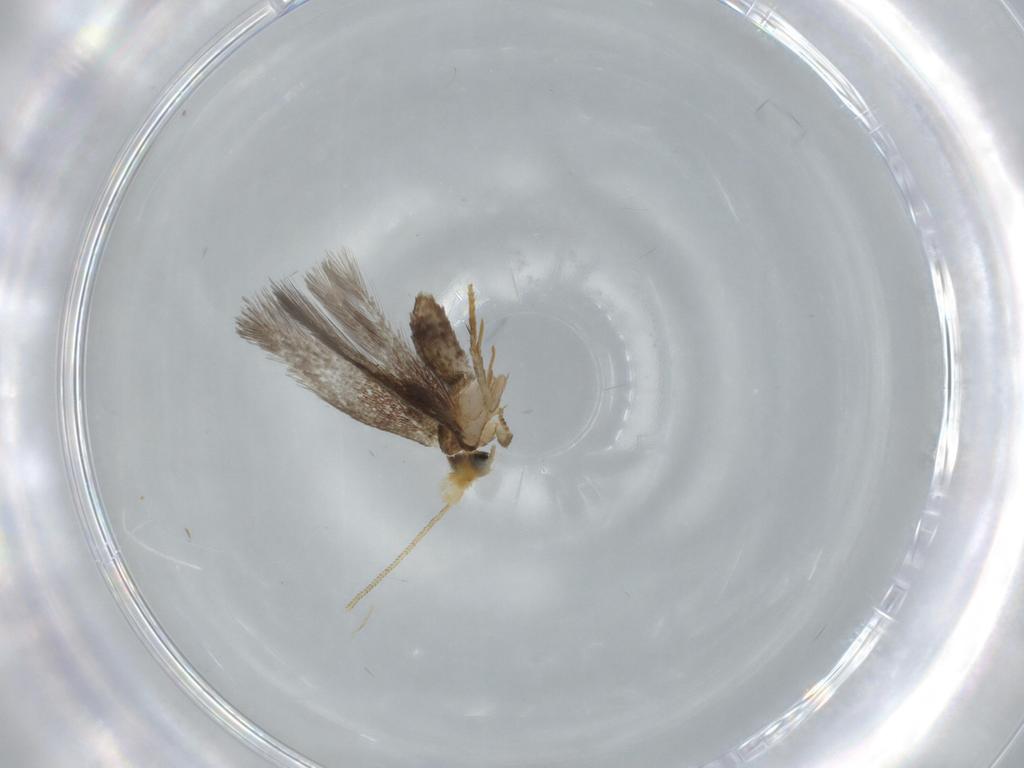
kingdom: Animalia
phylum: Arthropoda
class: Insecta
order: Lepidoptera
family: Nepticulidae
